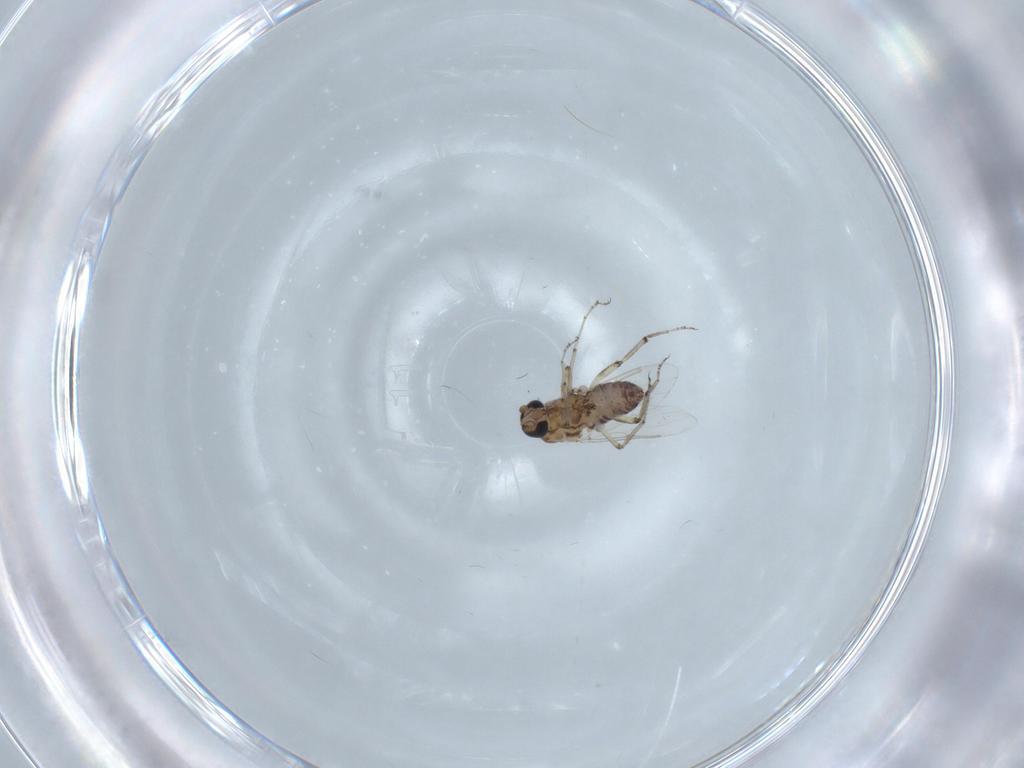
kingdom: Animalia
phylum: Arthropoda
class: Insecta
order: Diptera
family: Ceratopogonidae
